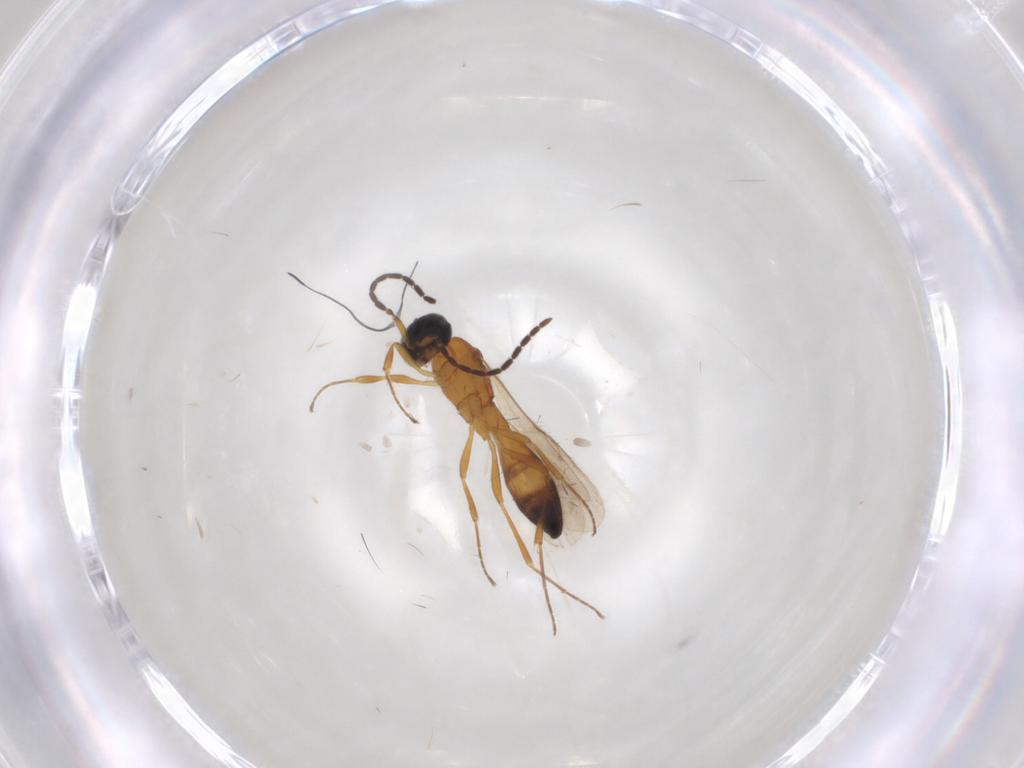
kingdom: Animalia
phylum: Arthropoda
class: Insecta
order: Hymenoptera
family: Scelionidae
